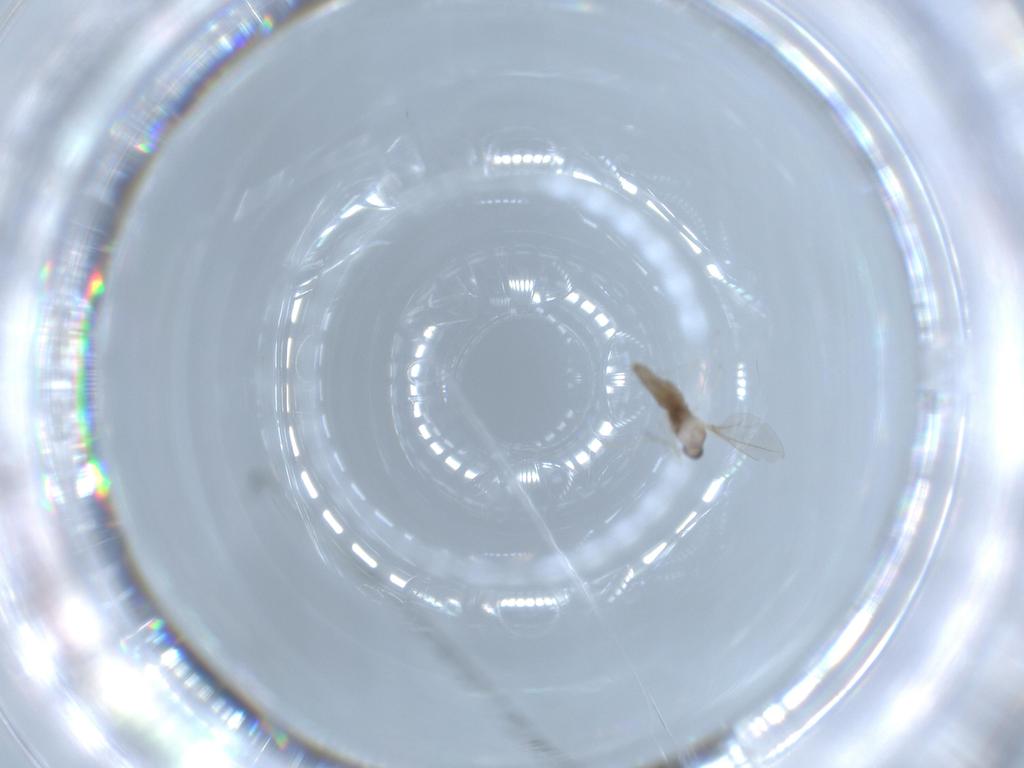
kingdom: Animalia
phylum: Arthropoda
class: Insecta
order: Diptera
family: Cecidomyiidae
